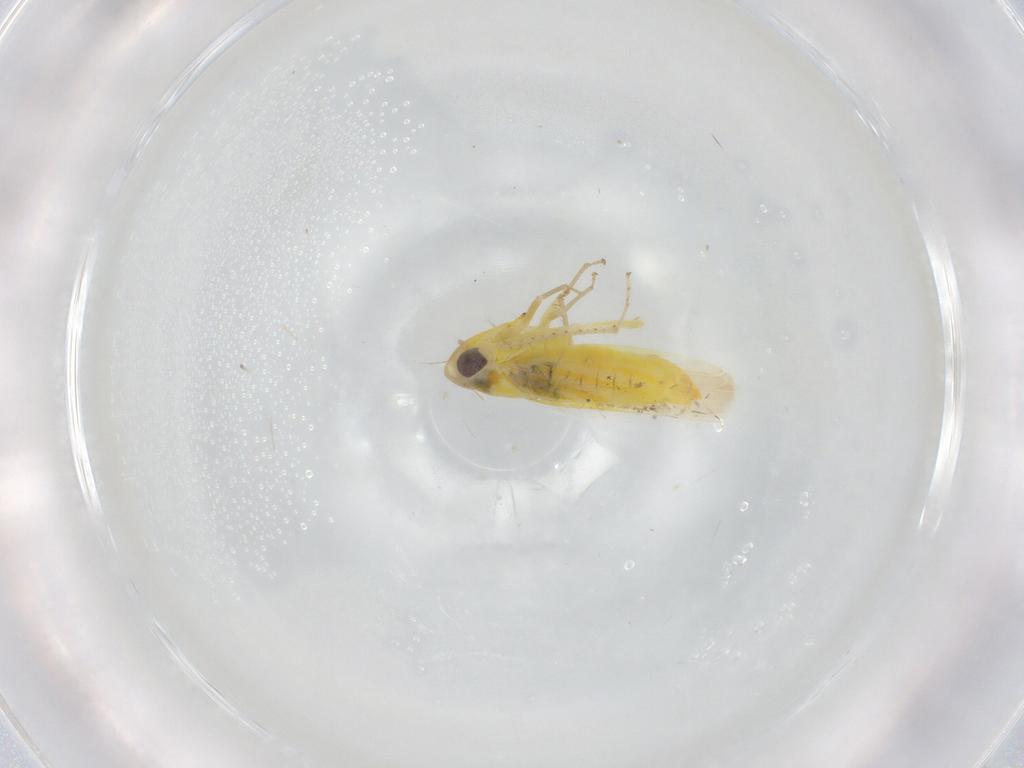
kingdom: Animalia
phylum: Arthropoda
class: Insecta
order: Hemiptera
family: Cicadellidae
